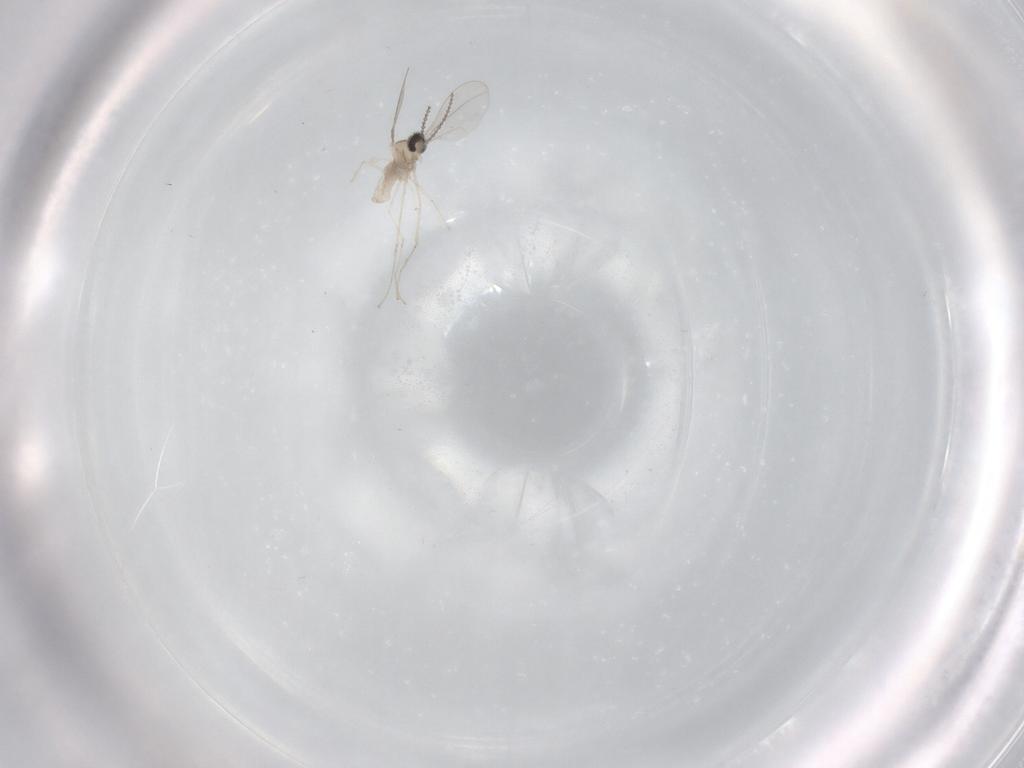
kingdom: Animalia
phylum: Arthropoda
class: Insecta
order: Diptera
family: Cecidomyiidae
